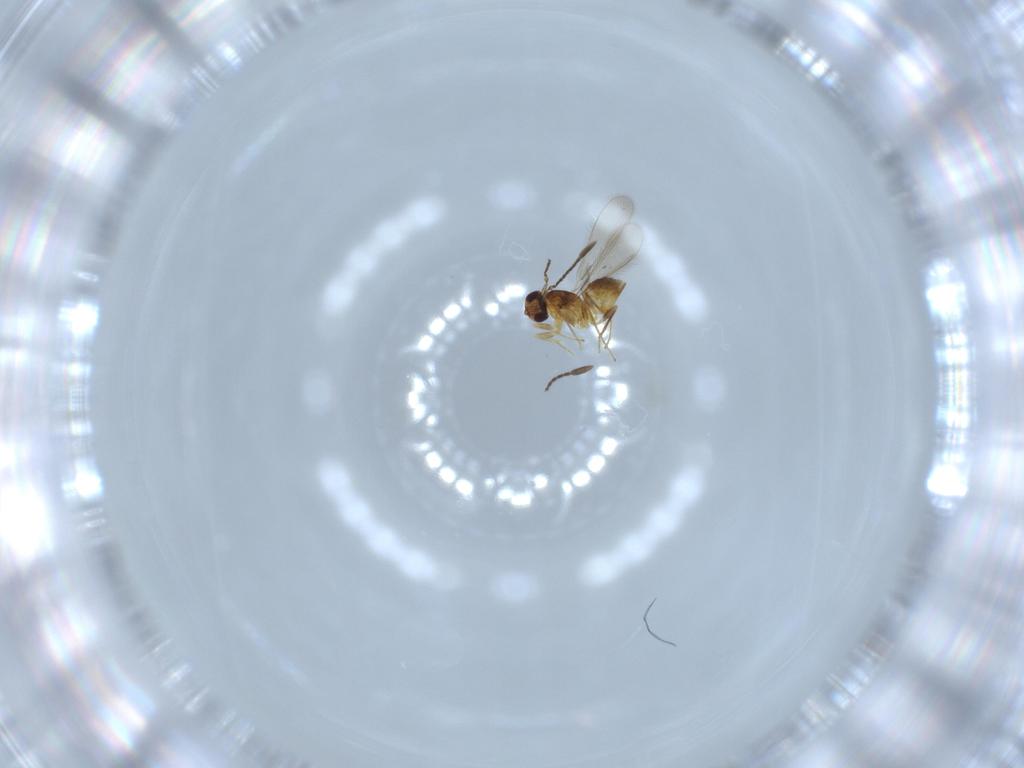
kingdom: Animalia
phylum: Arthropoda
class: Insecta
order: Hymenoptera
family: Mymaridae
